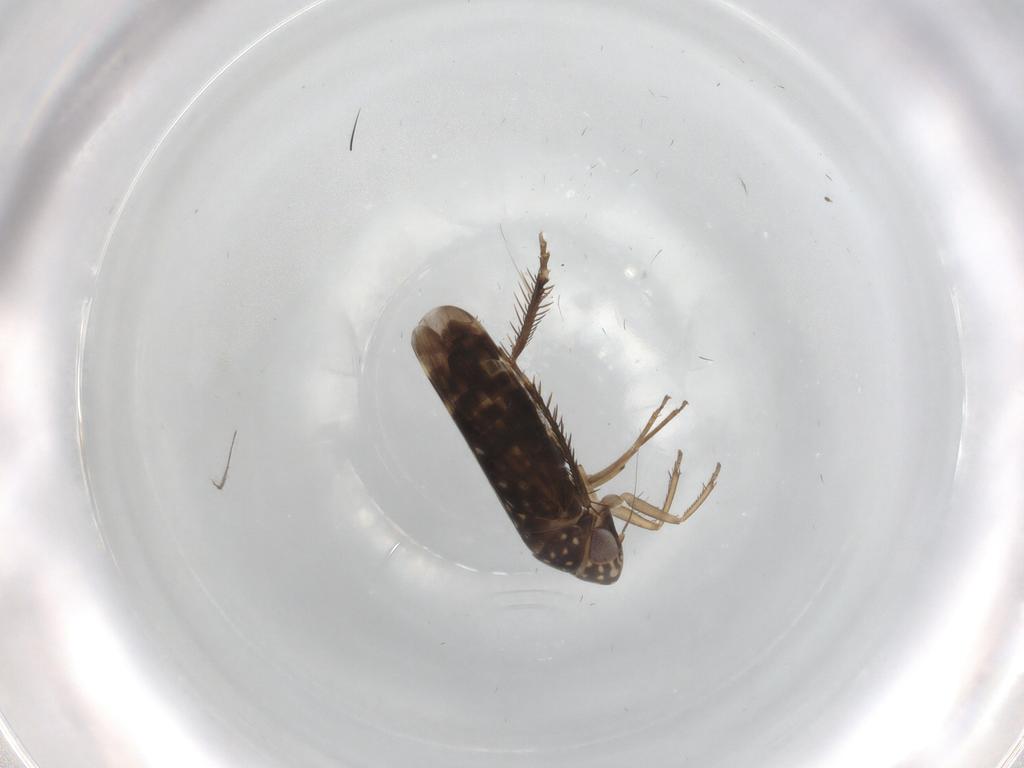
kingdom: Animalia
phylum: Arthropoda
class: Insecta
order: Hemiptera
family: Cicadellidae
